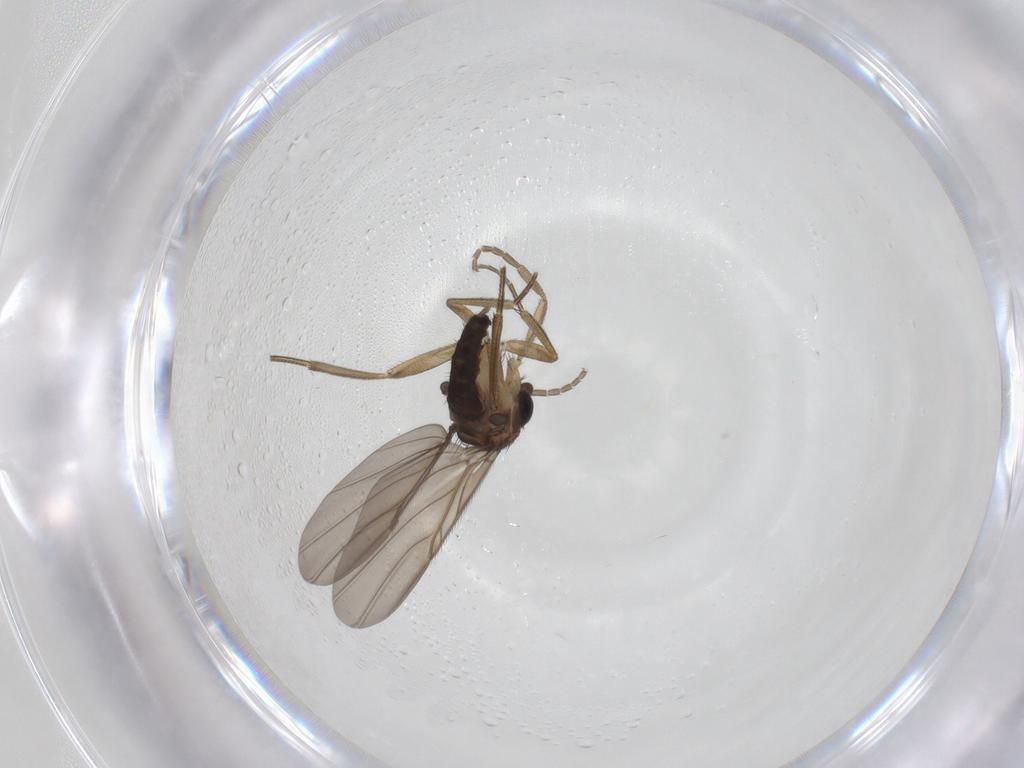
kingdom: Animalia
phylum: Arthropoda
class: Insecta
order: Diptera
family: Phoridae
